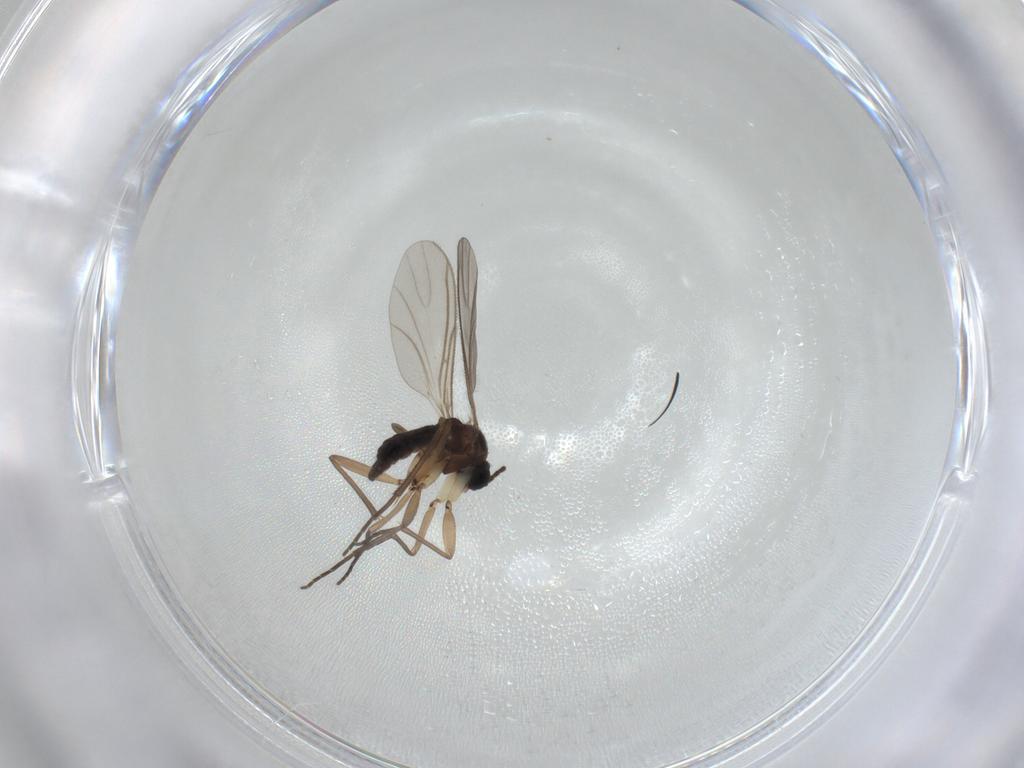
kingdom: Animalia
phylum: Arthropoda
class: Insecta
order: Diptera
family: Sciaridae
